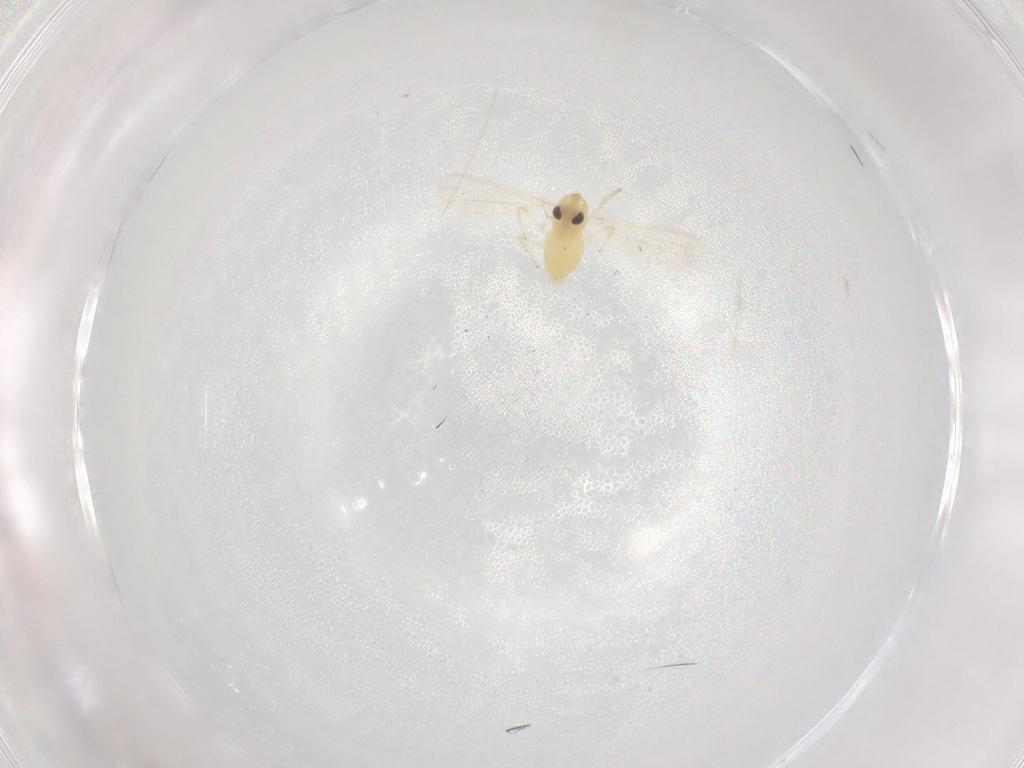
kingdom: Animalia
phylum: Arthropoda
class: Insecta
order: Diptera
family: Chironomidae
